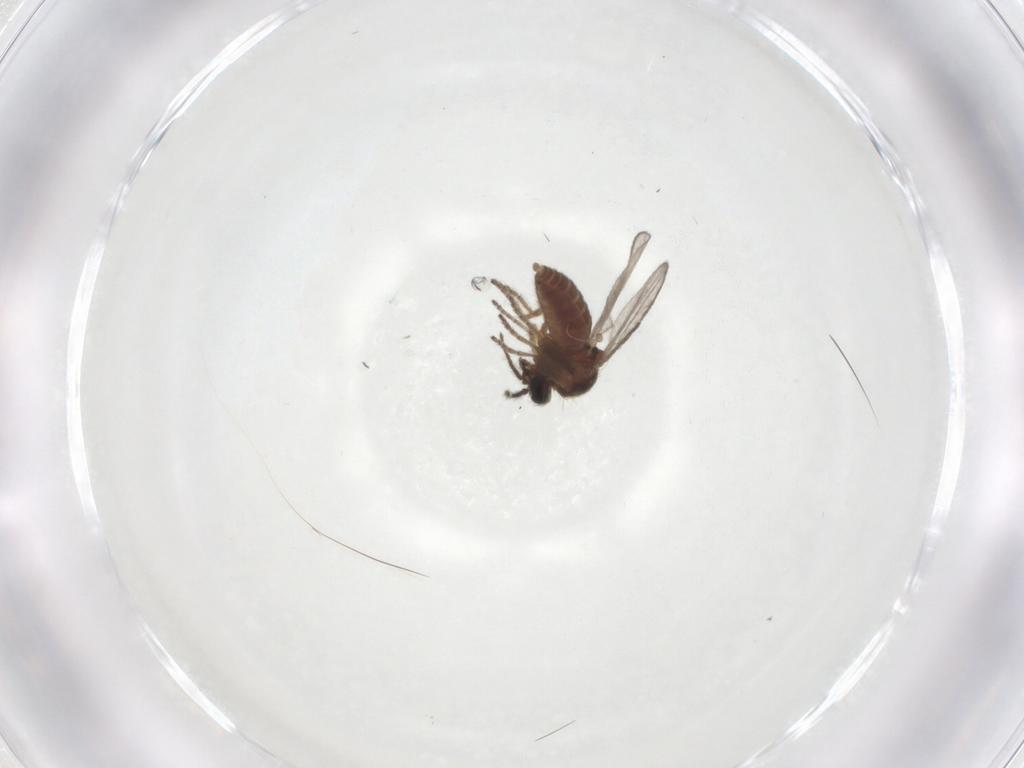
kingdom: Animalia
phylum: Arthropoda
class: Insecta
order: Diptera
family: Ceratopogonidae
